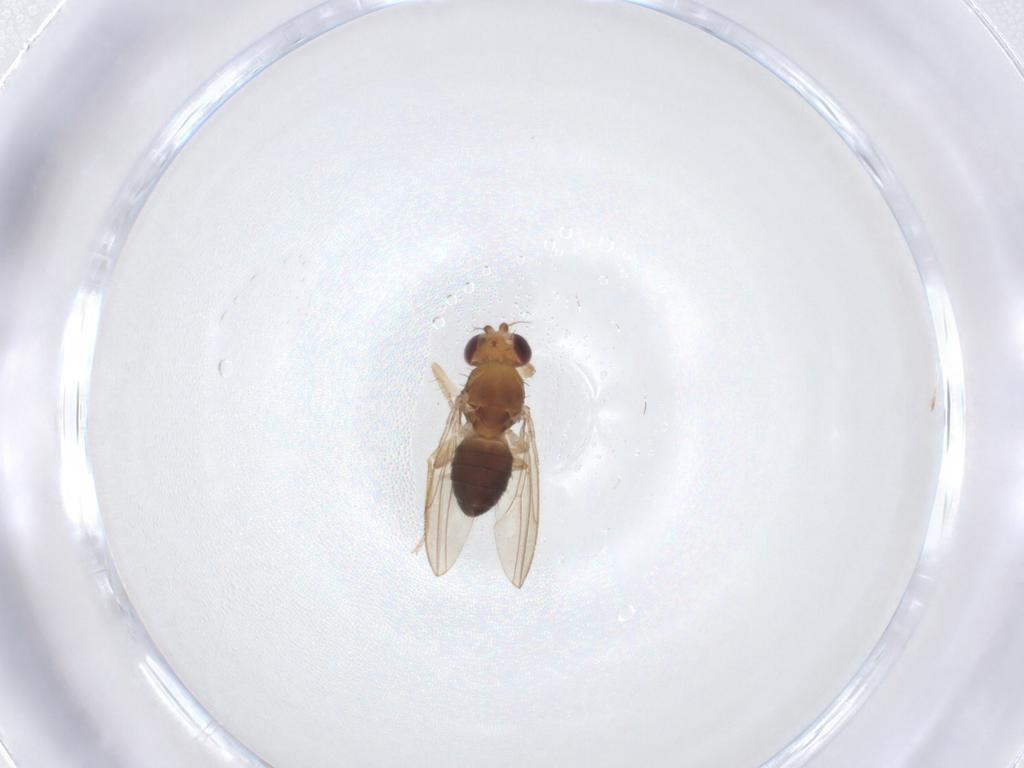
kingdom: Animalia
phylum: Arthropoda
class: Insecta
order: Diptera
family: Drosophilidae
